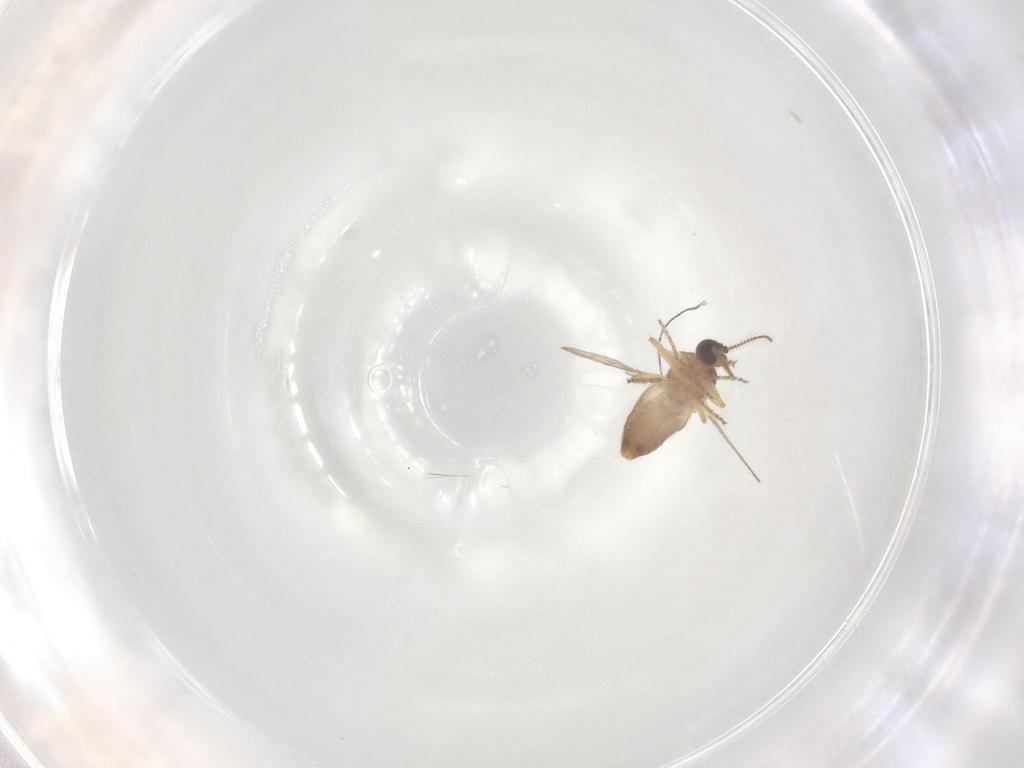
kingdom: Animalia
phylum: Arthropoda
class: Insecta
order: Diptera
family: Ceratopogonidae
